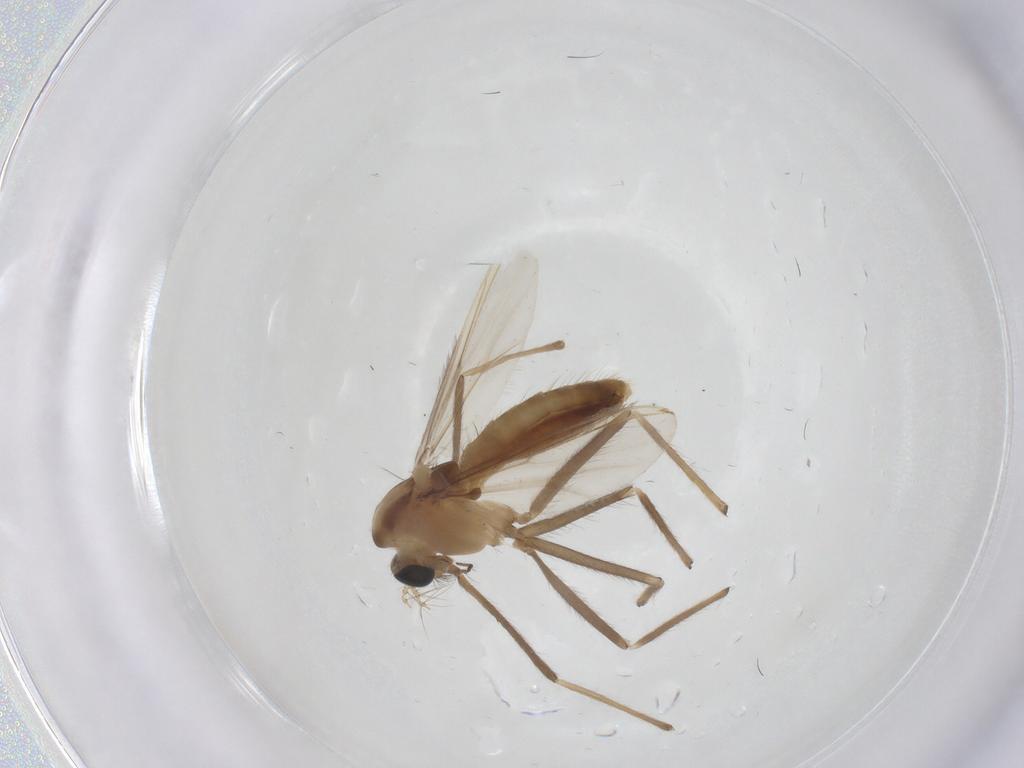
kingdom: Animalia
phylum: Arthropoda
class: Insecta
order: Diptera
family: Chironomidae
